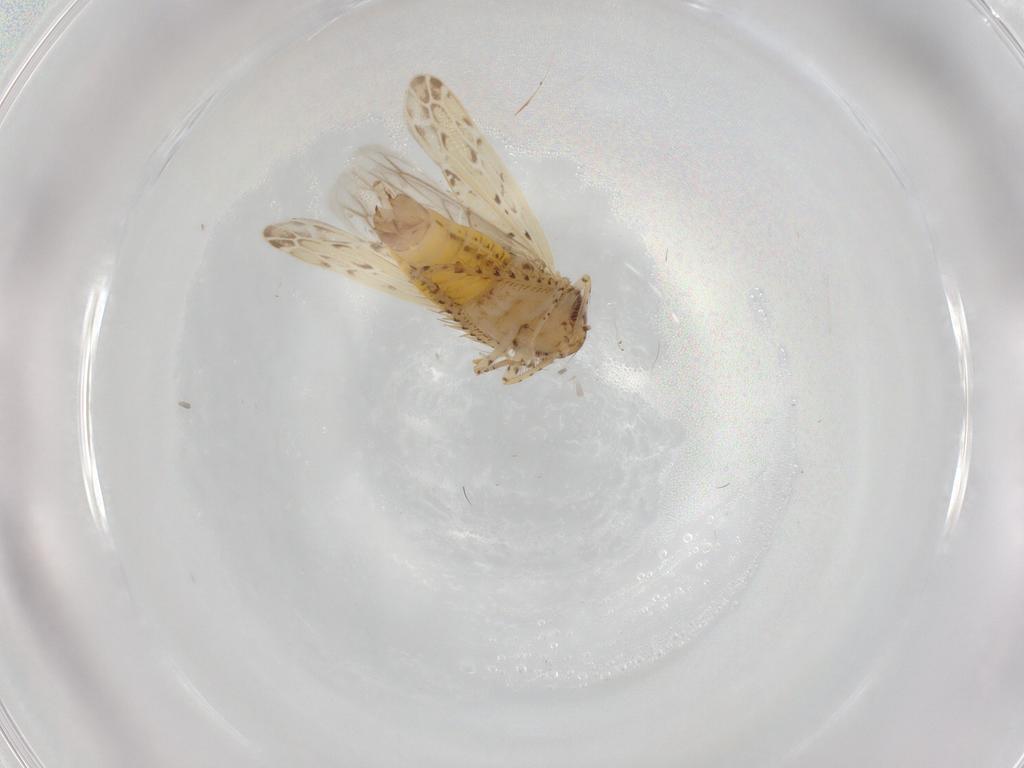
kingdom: Animalia
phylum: Arthropoda
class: Insecta
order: Hemiptera
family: Cicadellidae
